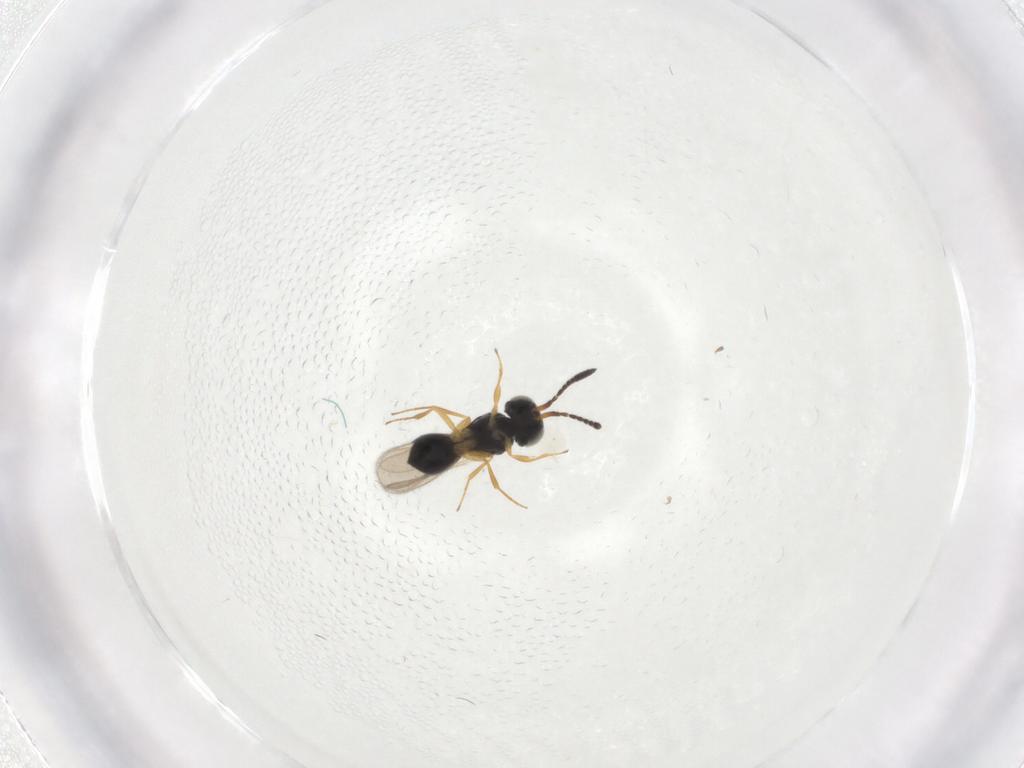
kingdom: Animalia
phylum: Arthropoda
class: Insecta
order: Hymenoptera
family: Scelionidae
